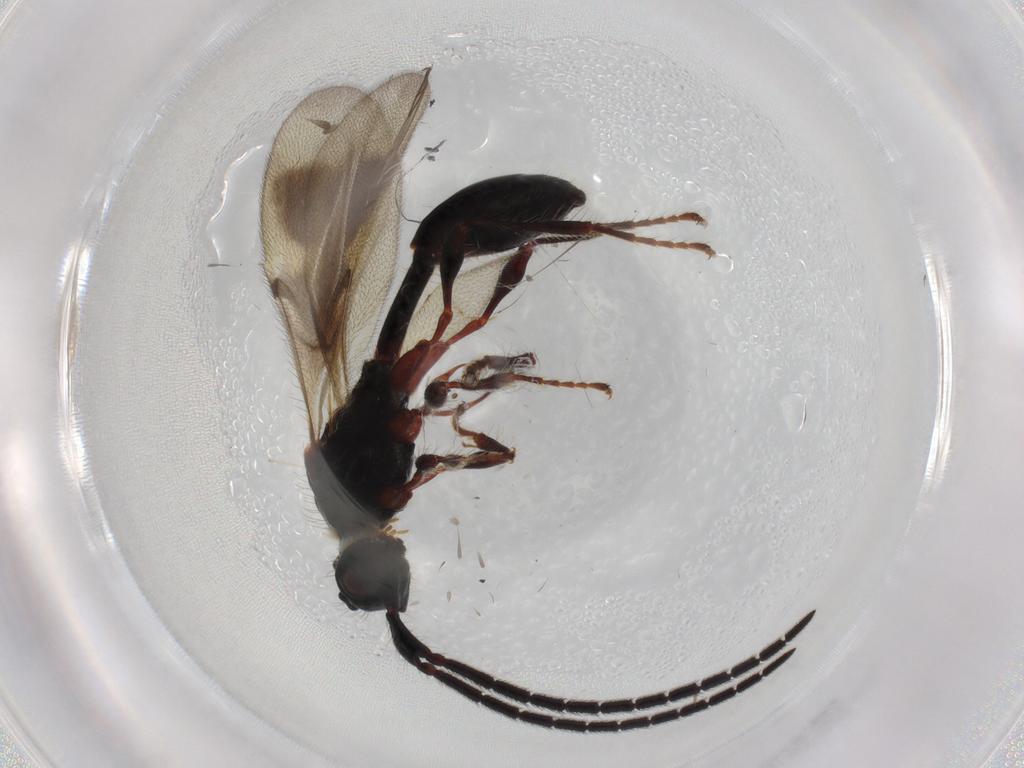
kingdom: Animalia
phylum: Arthropoda
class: Insecta
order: Hymenoptera
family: Diapriidae
